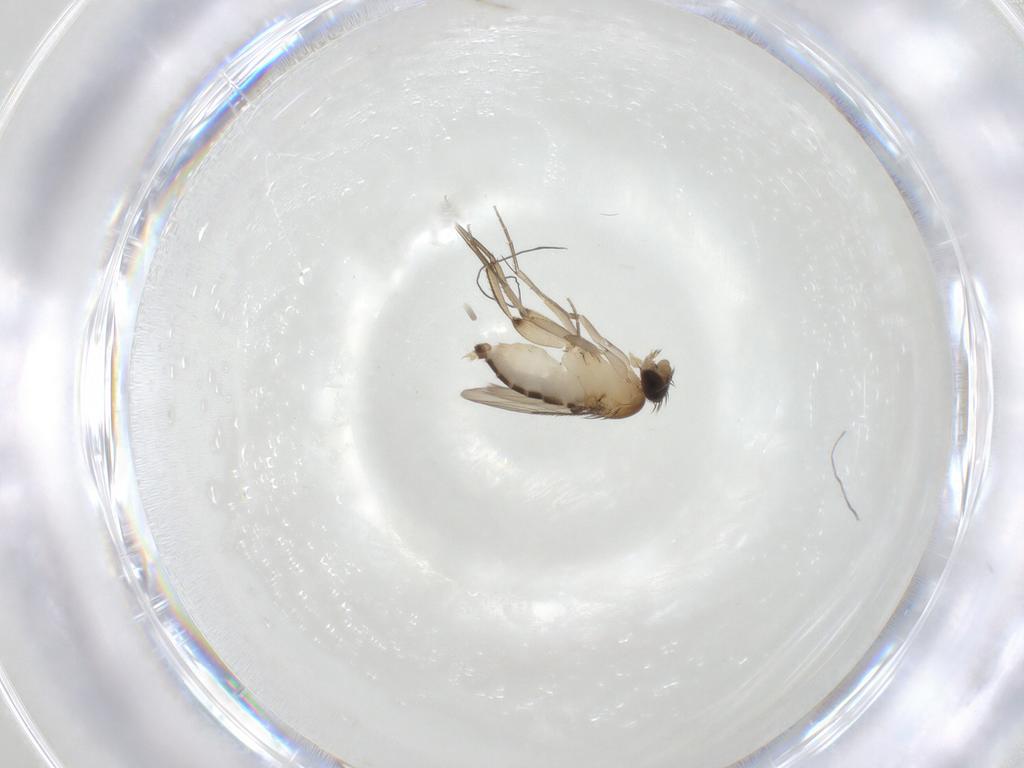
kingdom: Animalia
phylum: Arthropoda
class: Insecta
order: Diptera
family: Phoridae
